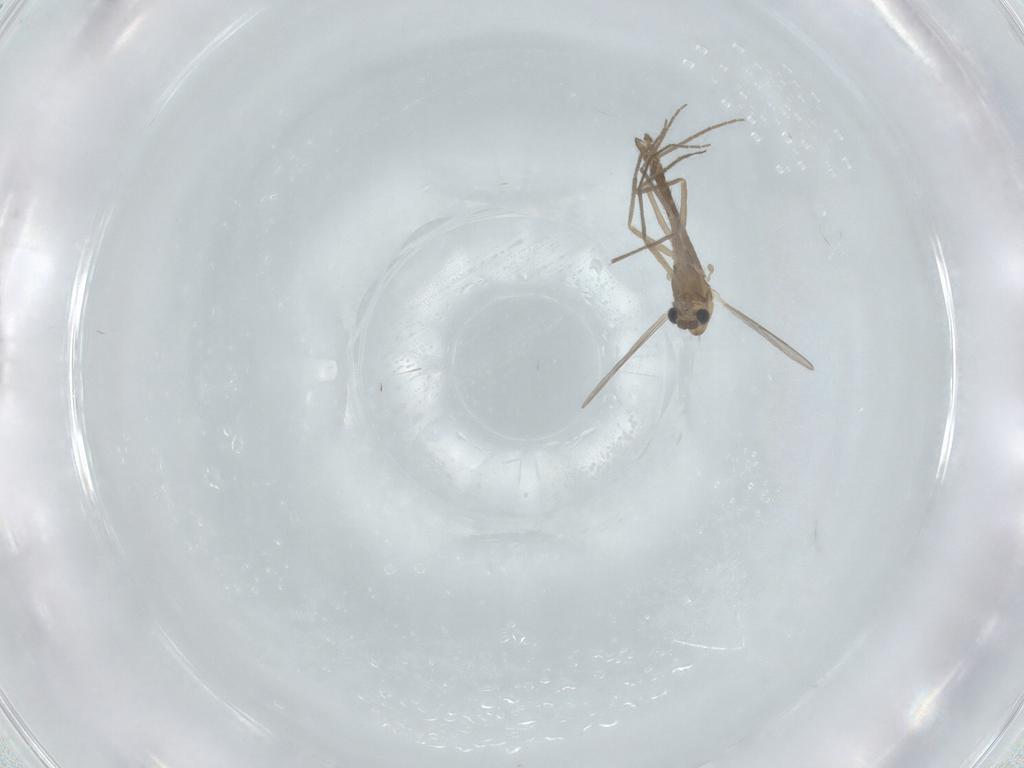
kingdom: Animalia
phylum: Arthropoda
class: Insecta
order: Diptera
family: Chironomidae
